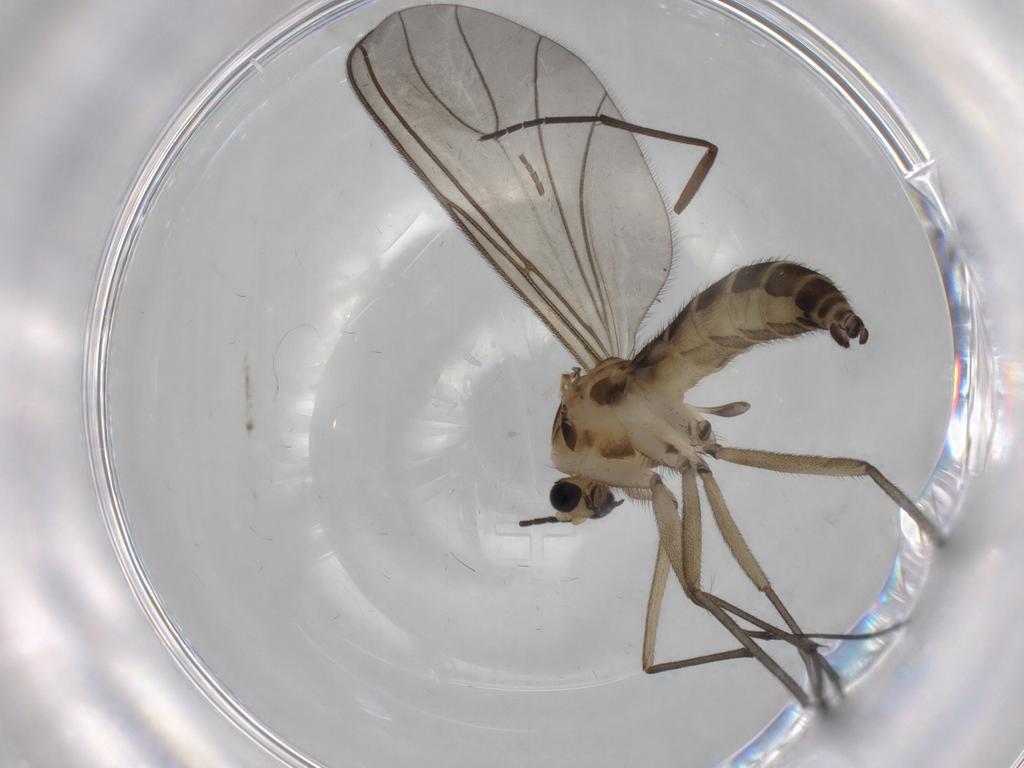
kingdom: Animalia
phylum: Arthropoda
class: Insecta
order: Diptera
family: Sciaridae
